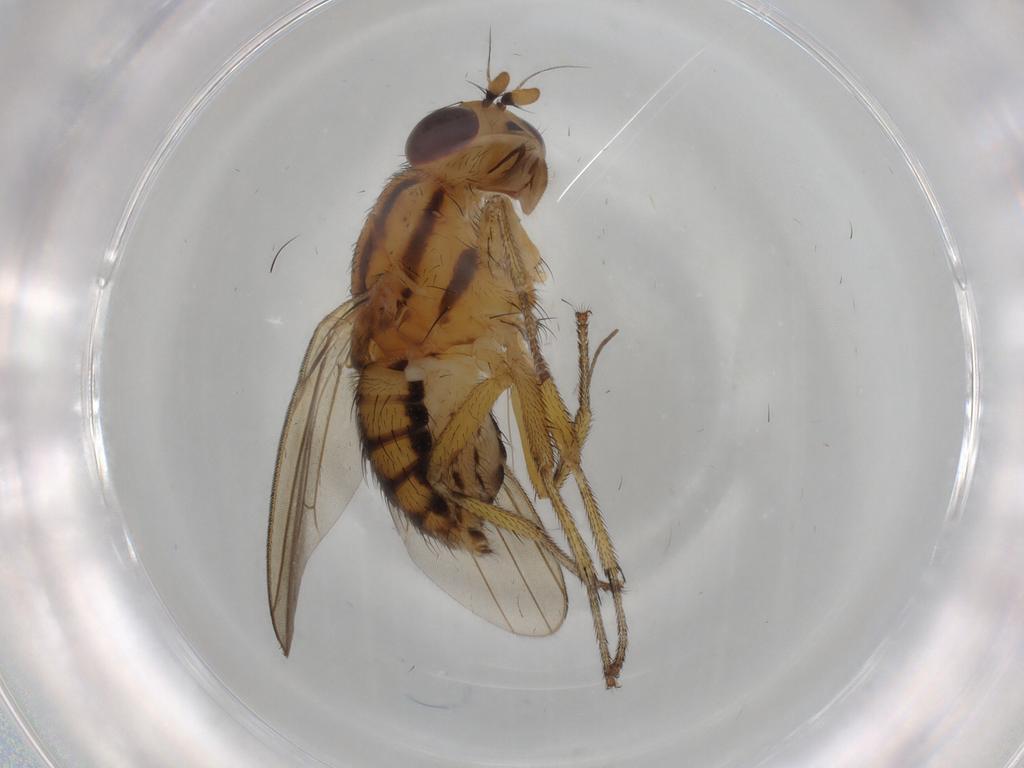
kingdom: Animalia
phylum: Arthropoda
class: Insecta
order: Diptera
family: Lauxaniidae
